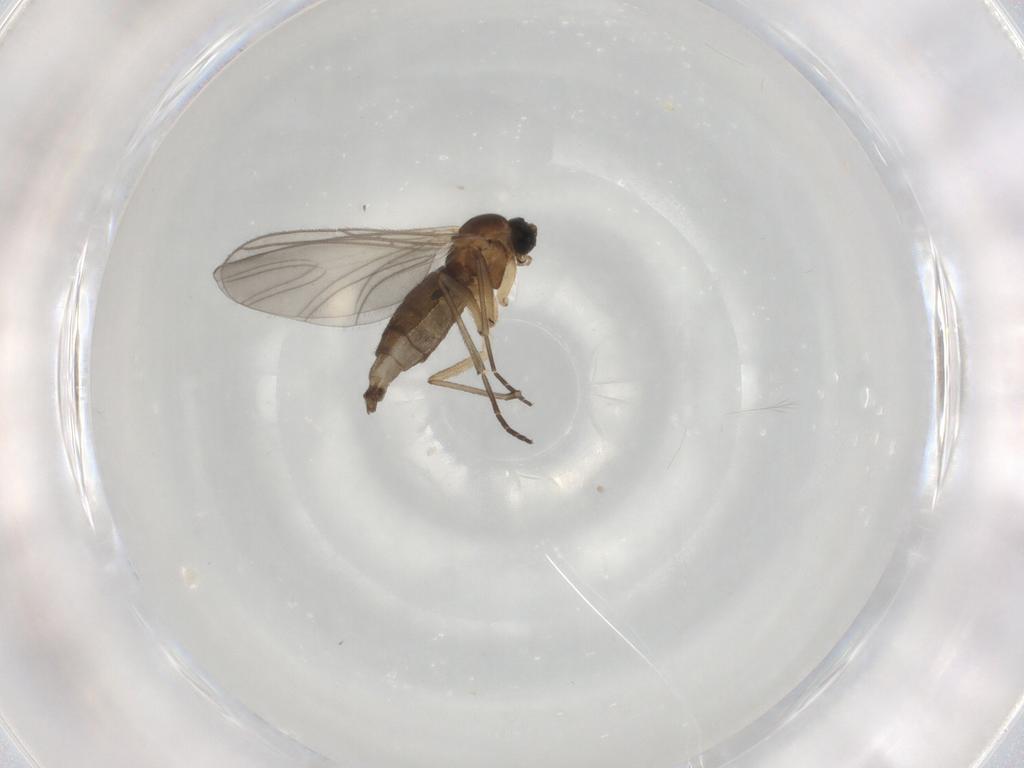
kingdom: Animalia
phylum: Arthropoda
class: Insecta
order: Diptera
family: Sciaridae
